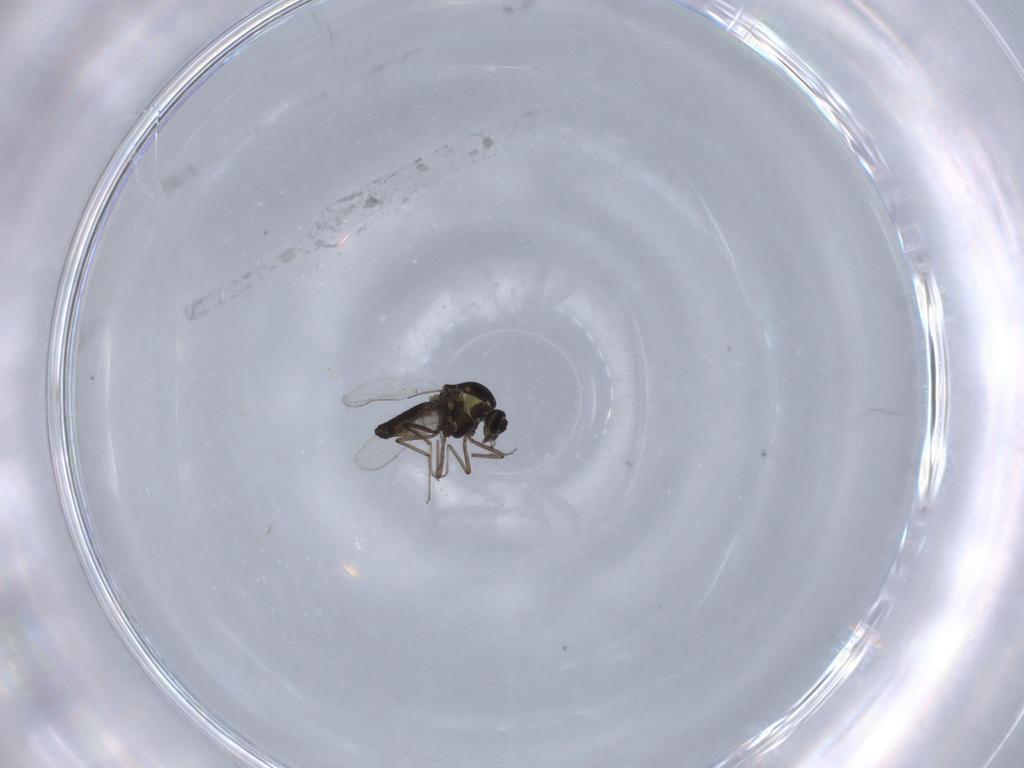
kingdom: Animalia
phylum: Arthropoda
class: Insecta
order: Diptera
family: Ceratopogonidae
